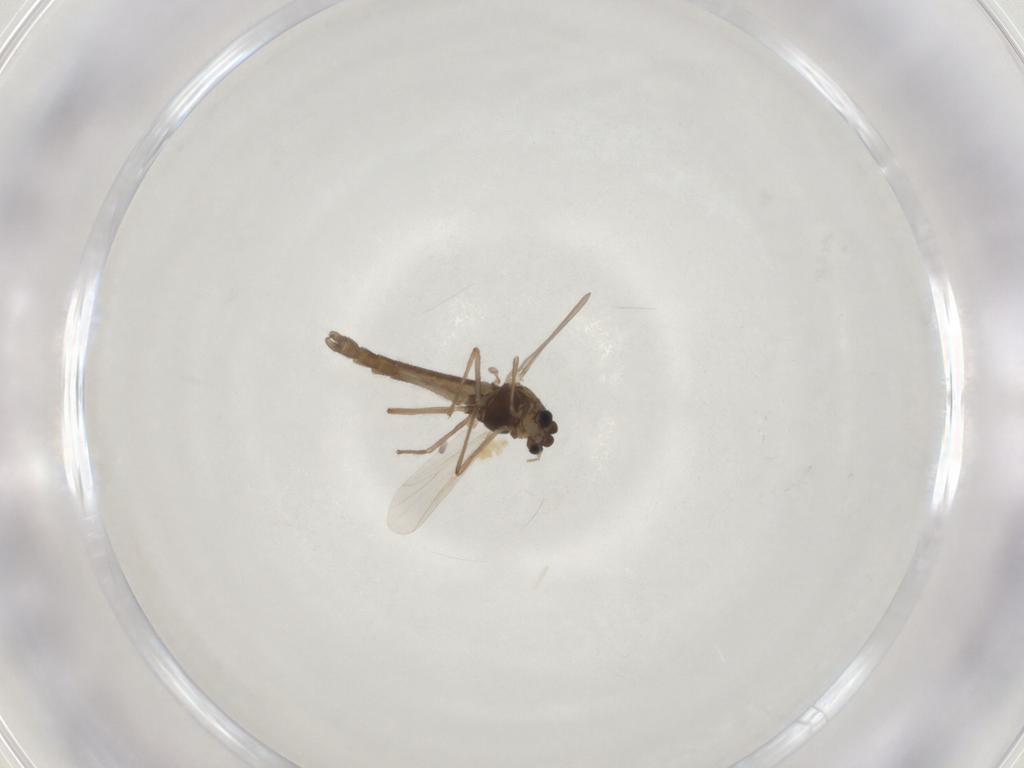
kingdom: Animalia
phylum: Arthropoda
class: Insecta
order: Diptera
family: Chironomidae
